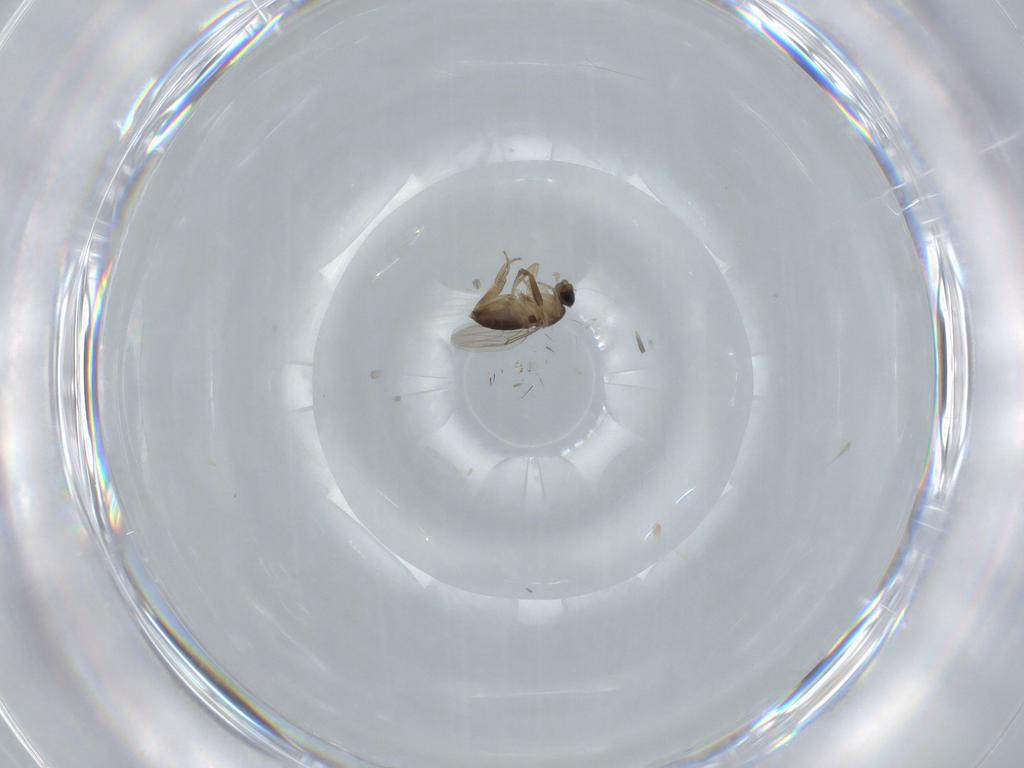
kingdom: Animalia
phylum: Arthropoda
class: Insecta
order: Diptera
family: Phoridae
